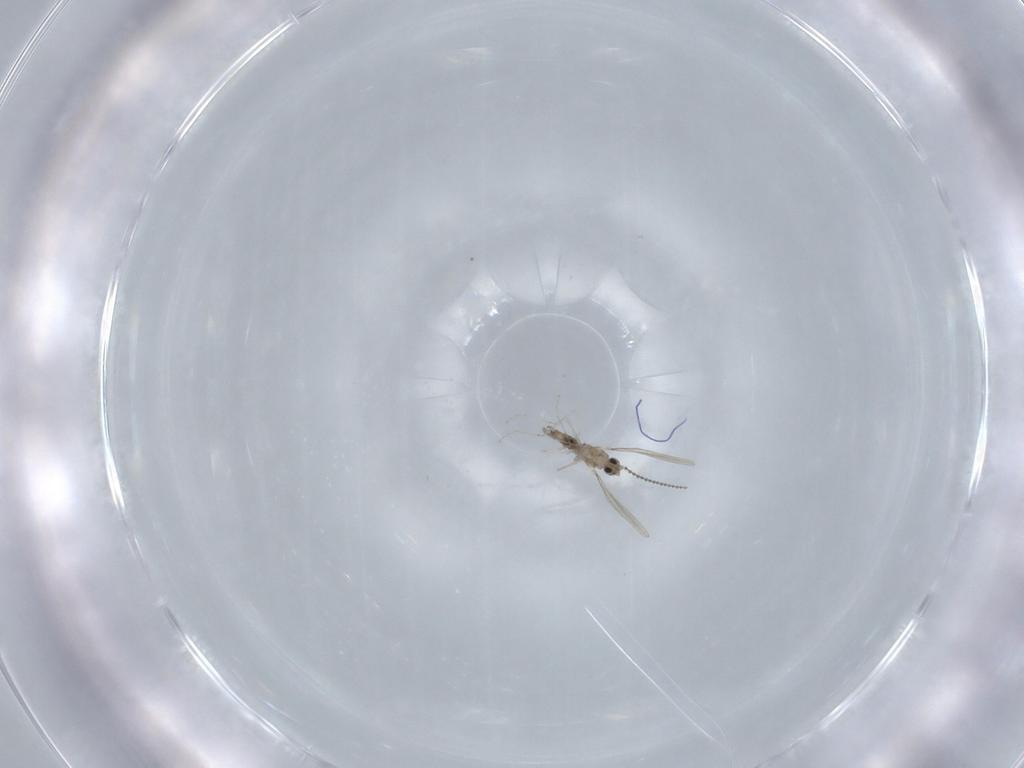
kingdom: Animalia
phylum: Arthropoda
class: Insecta
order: Diptera
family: Cecidomyiidae
